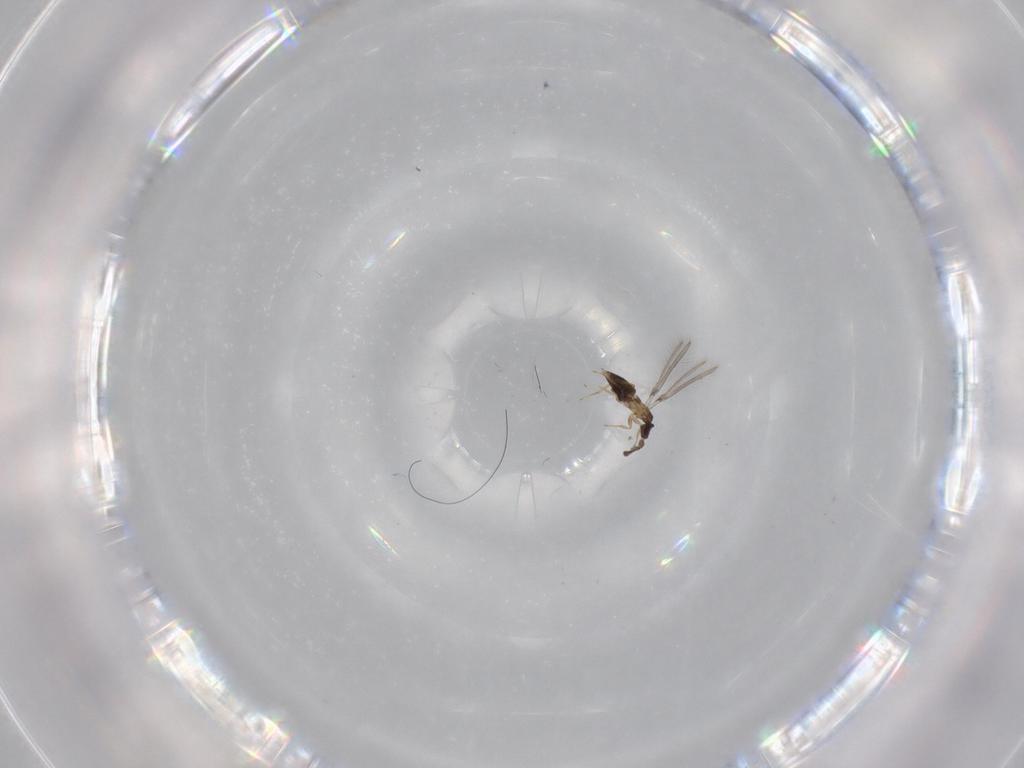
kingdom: Animalia
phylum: Arthropoda
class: Insecta
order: Hymenoptera
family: Mymaridae
